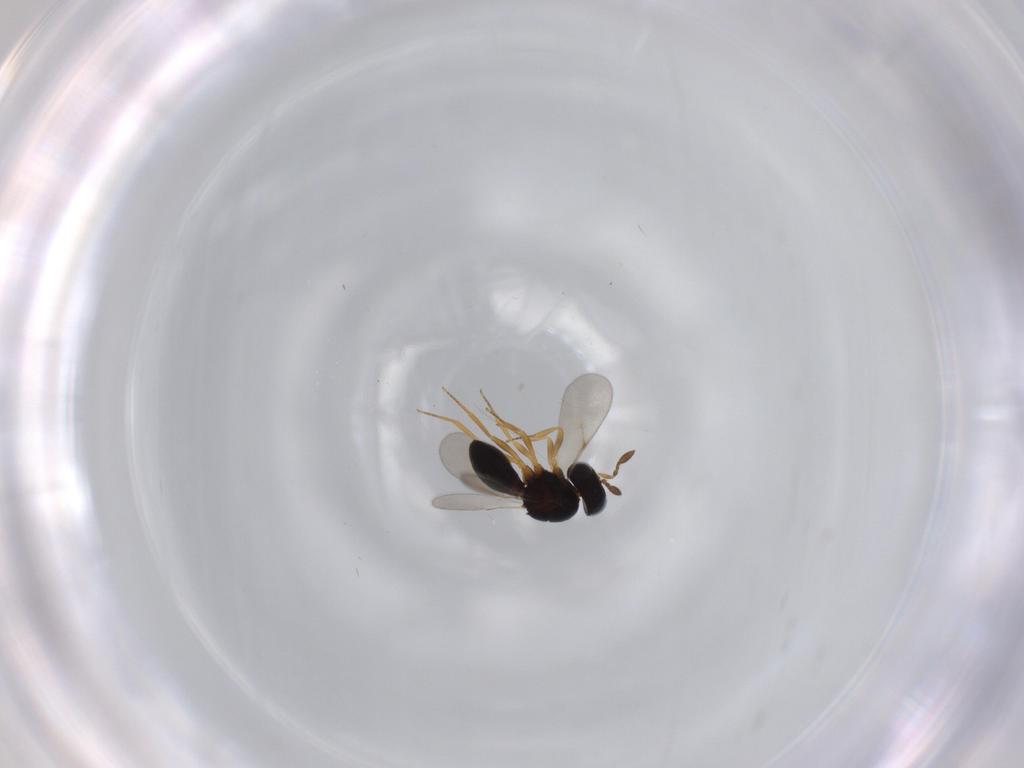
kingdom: Animalia
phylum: Arthropoda
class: Insecta
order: Hymenoptera
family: Scelionidae
